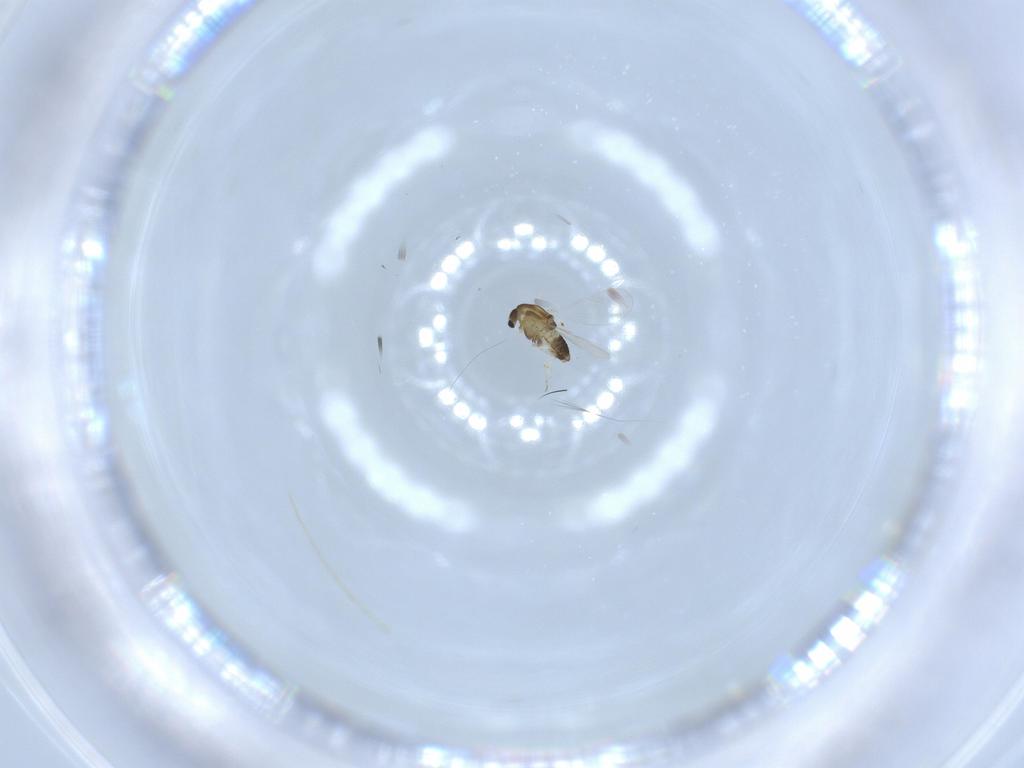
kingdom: Animalia
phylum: Arthropoda
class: Insecta
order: Diptera
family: Chironomidae
